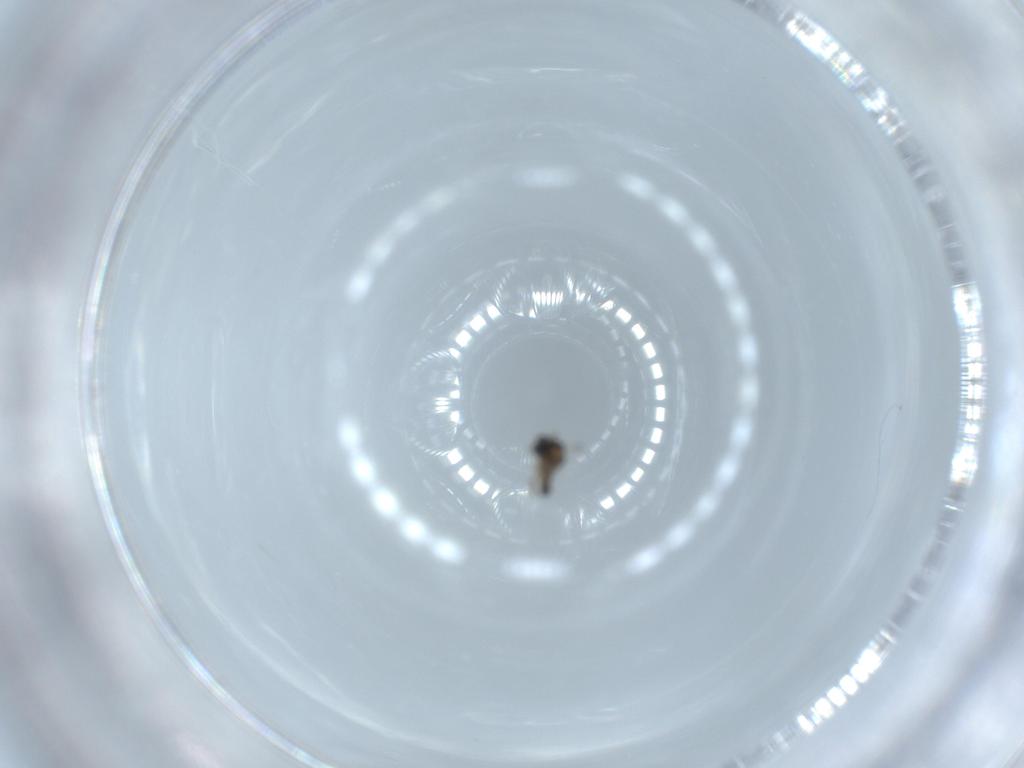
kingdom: Animalia
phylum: Arthropoda
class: Insecta
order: Diptera
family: Cecidomyiidae
